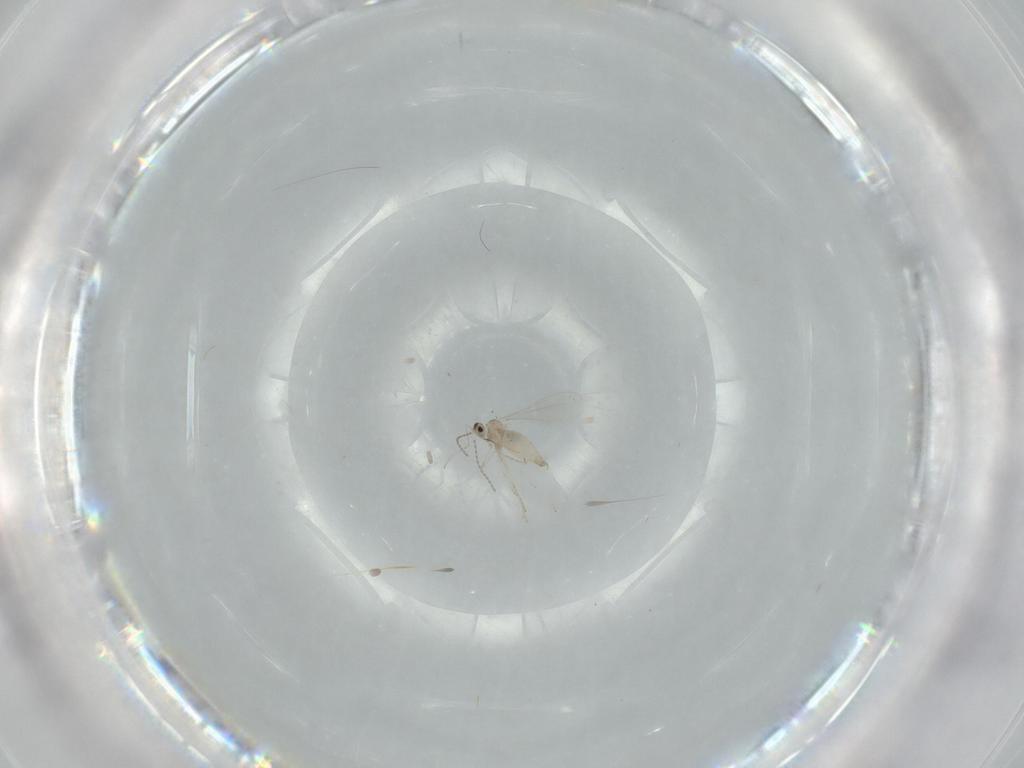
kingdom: Animalia
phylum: Arthropoda
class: Insecta
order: Diptera
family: Cecidomyiidae
